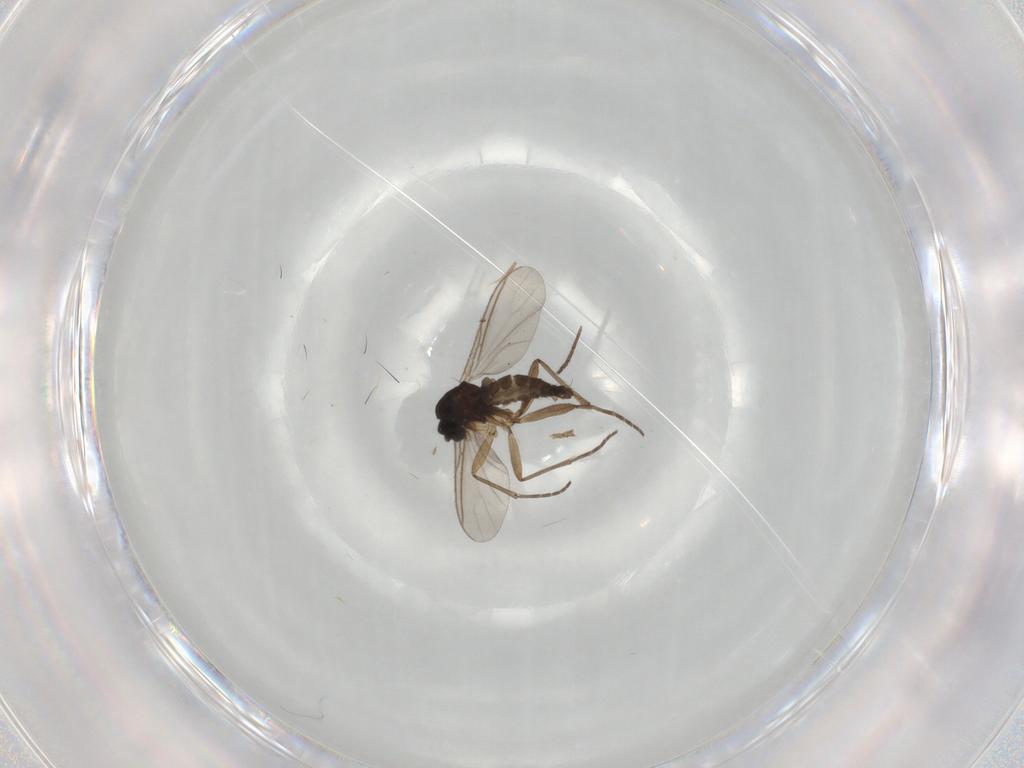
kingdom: Animalia
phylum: Arthropoda
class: Insecta
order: Diptera
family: Sciaridae
